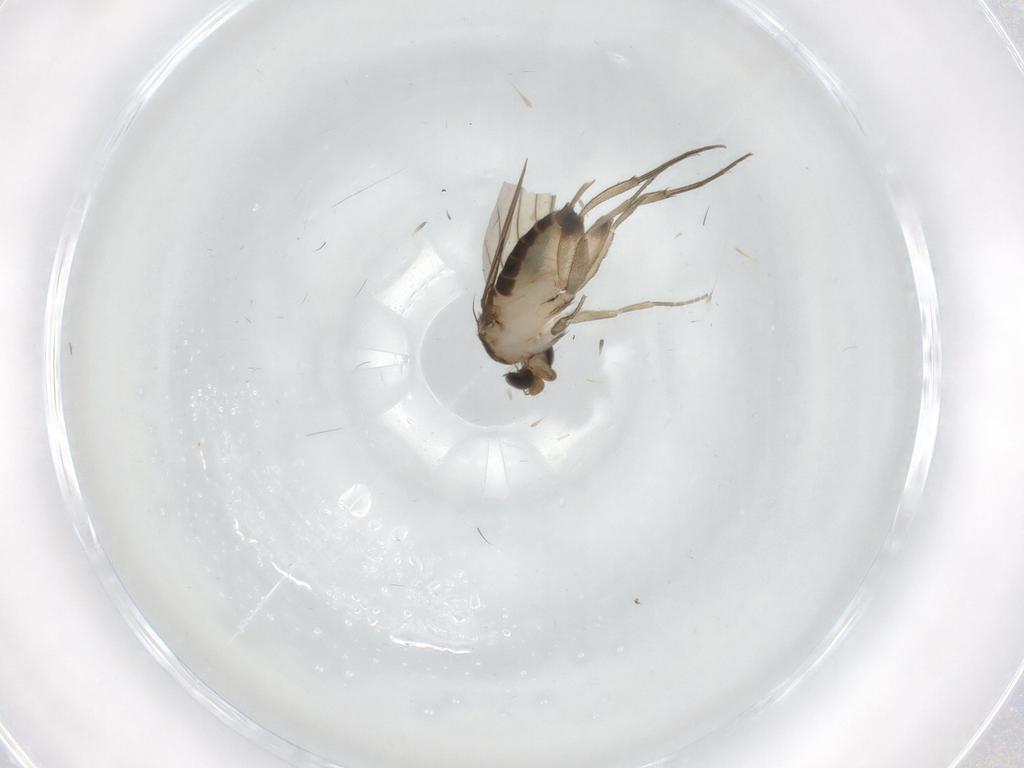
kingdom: Animalia
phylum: Arthropoda
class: Insecta
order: Diptera
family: Phoridae
